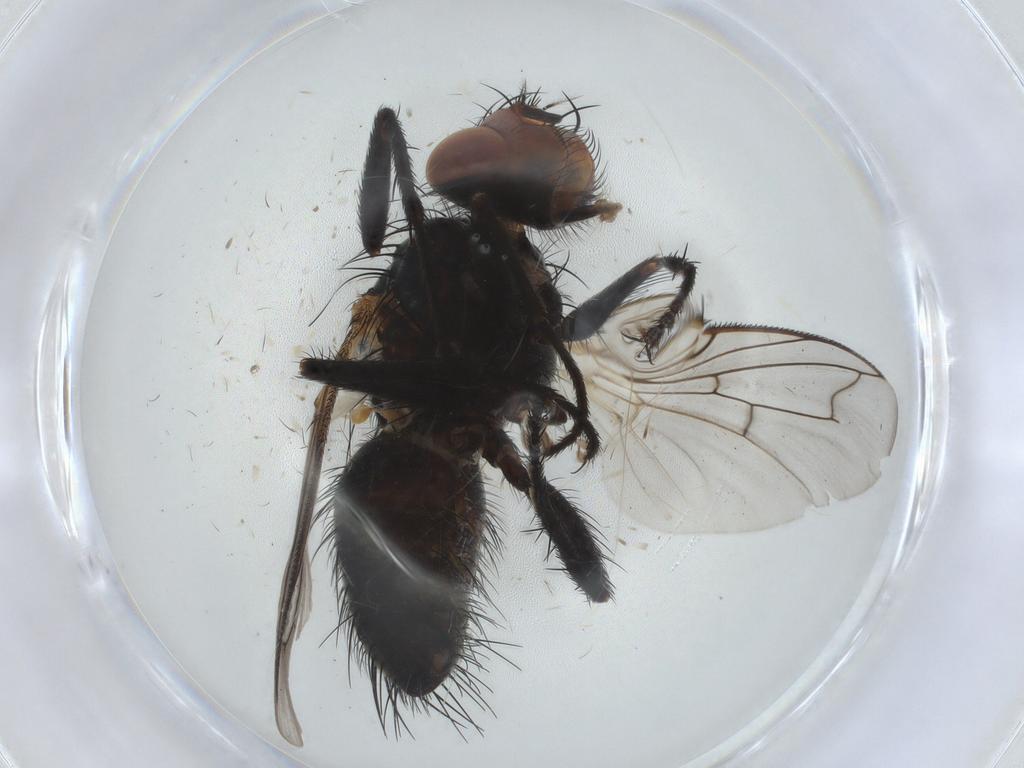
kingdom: Animalia
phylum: Arthropoda
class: Insecta
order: Diptera
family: Tachinidae
